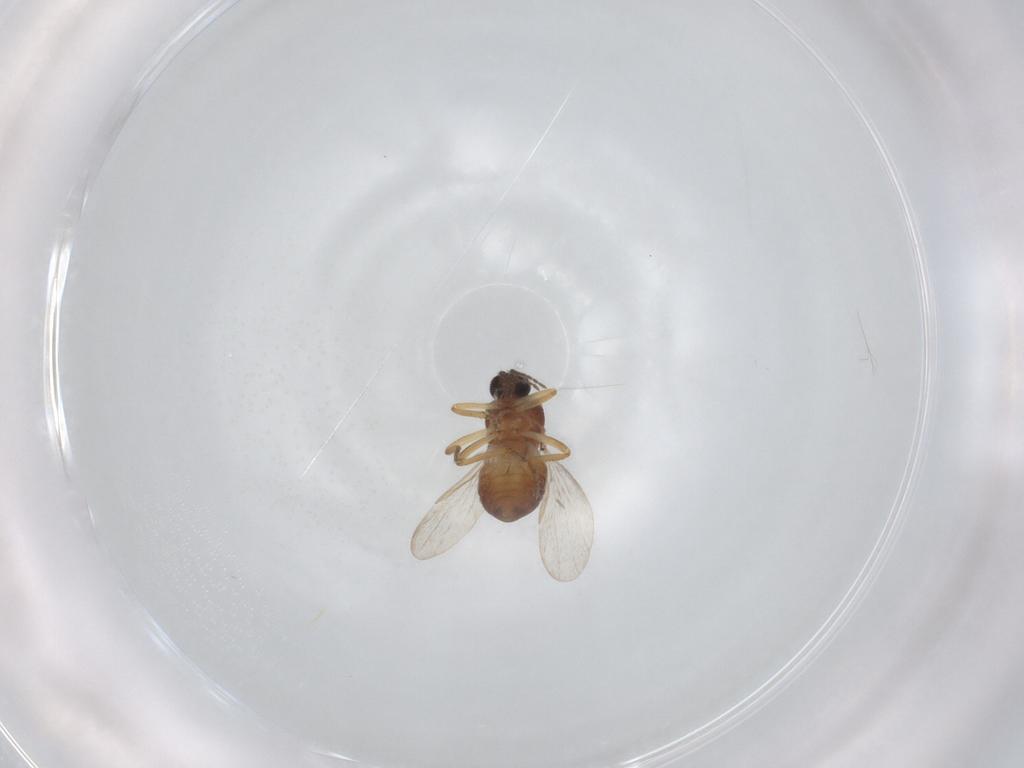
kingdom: Animalia
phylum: Arthropoda
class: Insecta
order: Diptera
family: Ceratopogonidae
